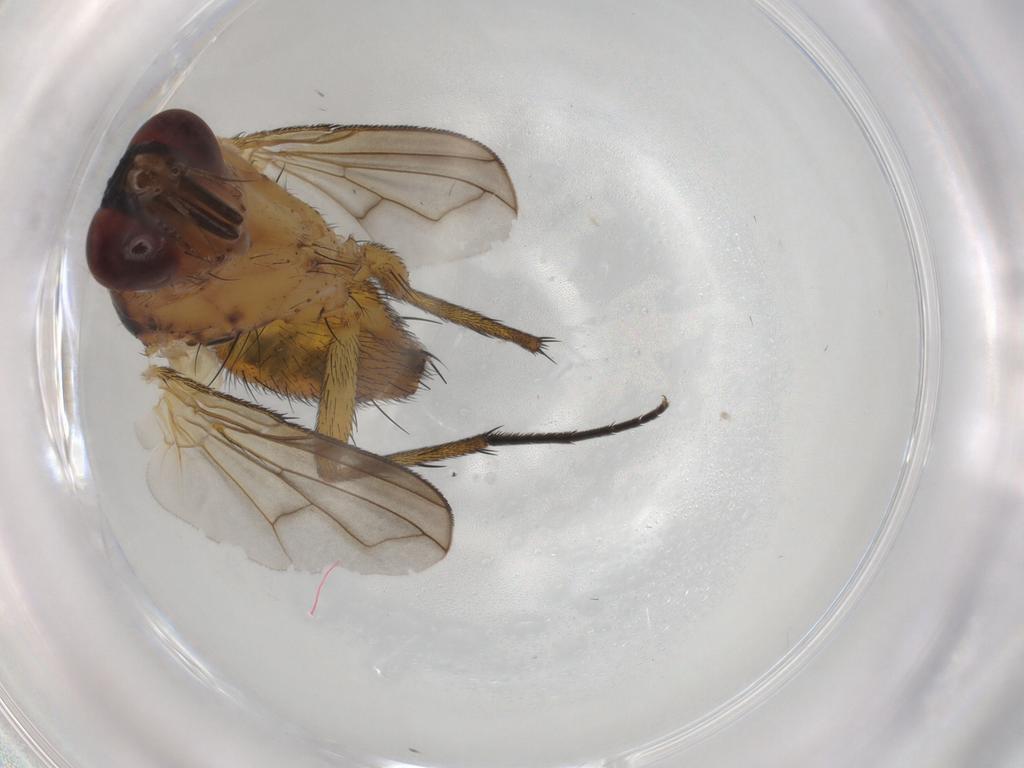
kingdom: Animalia
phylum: Arthropoda
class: Insecta
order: Diptera
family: Tachinidae
